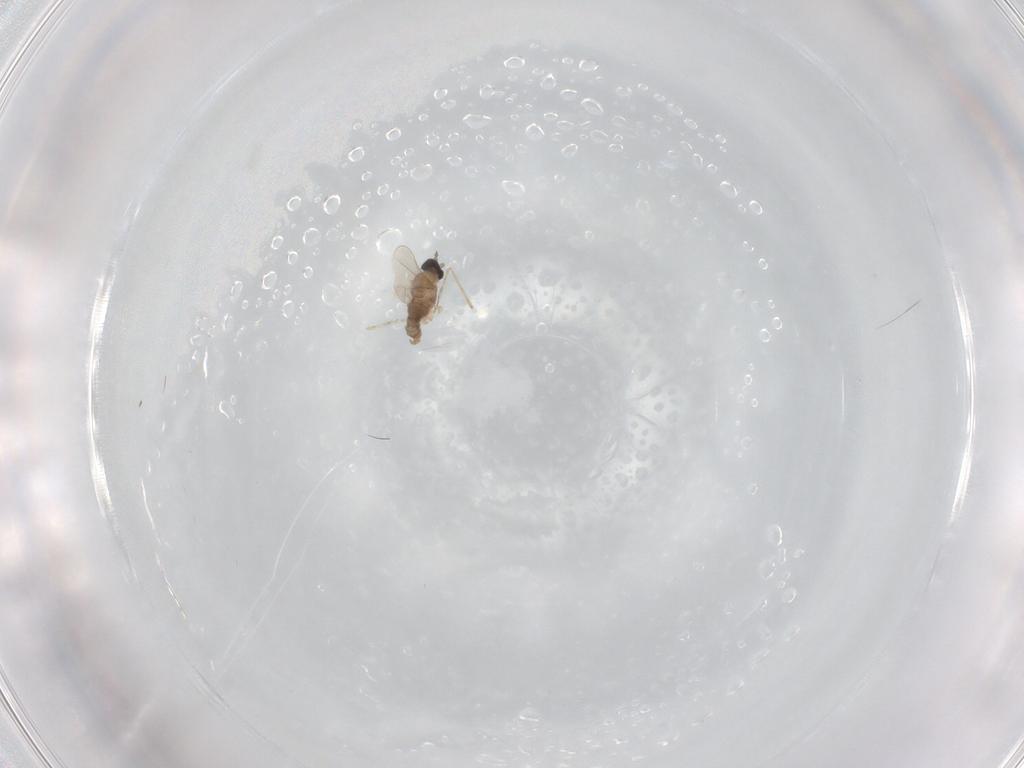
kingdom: Animalia
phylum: Arthropoda
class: Insecta
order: Diptera
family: Cecidomyiidae
